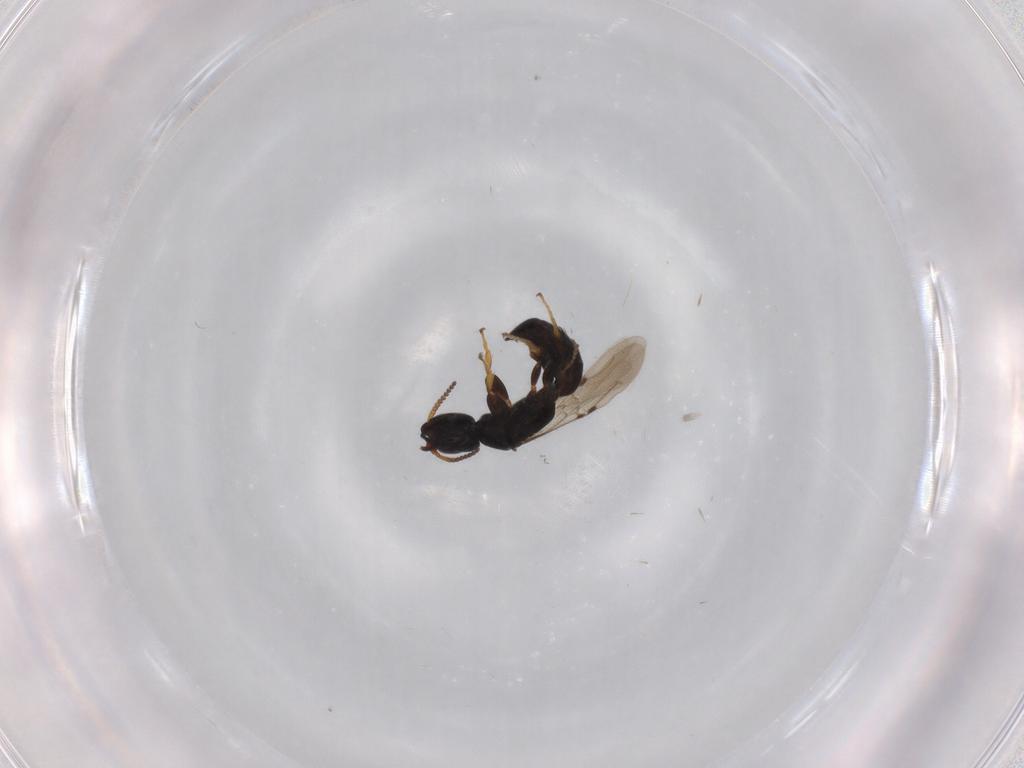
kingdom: Animalia
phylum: Arthropoda
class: Insecta
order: Hymenoptera
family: Bethylidae
